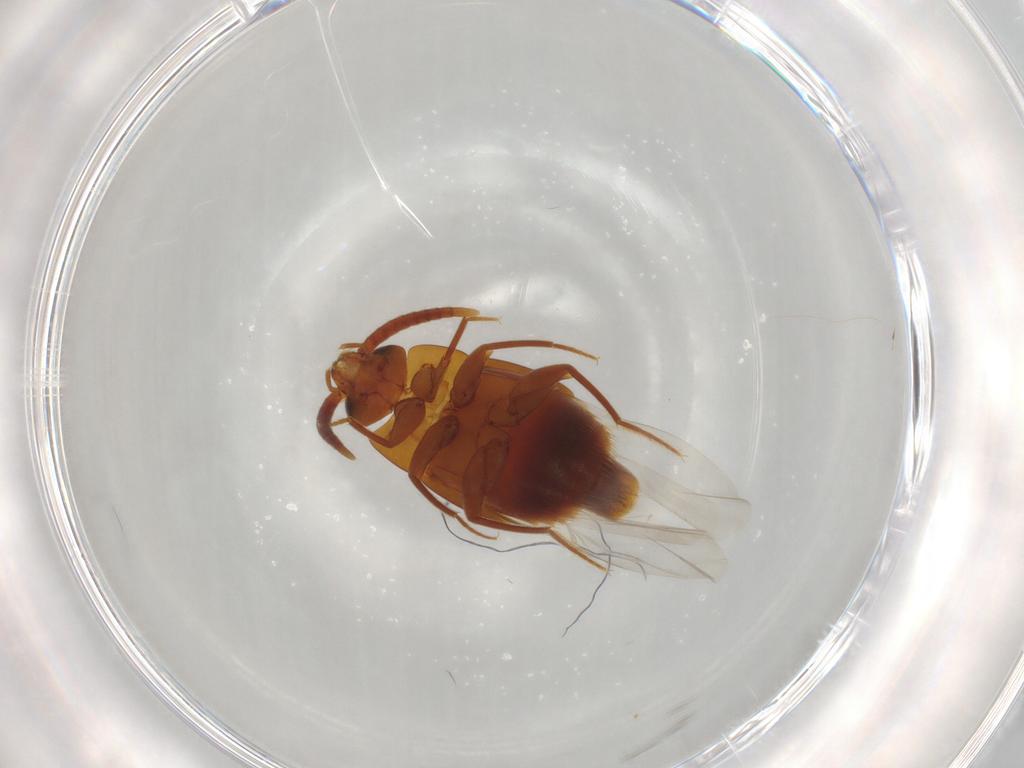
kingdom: Animalia
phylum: Arthropoda
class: Insecta
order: Coleoptera
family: Staphylinidae
